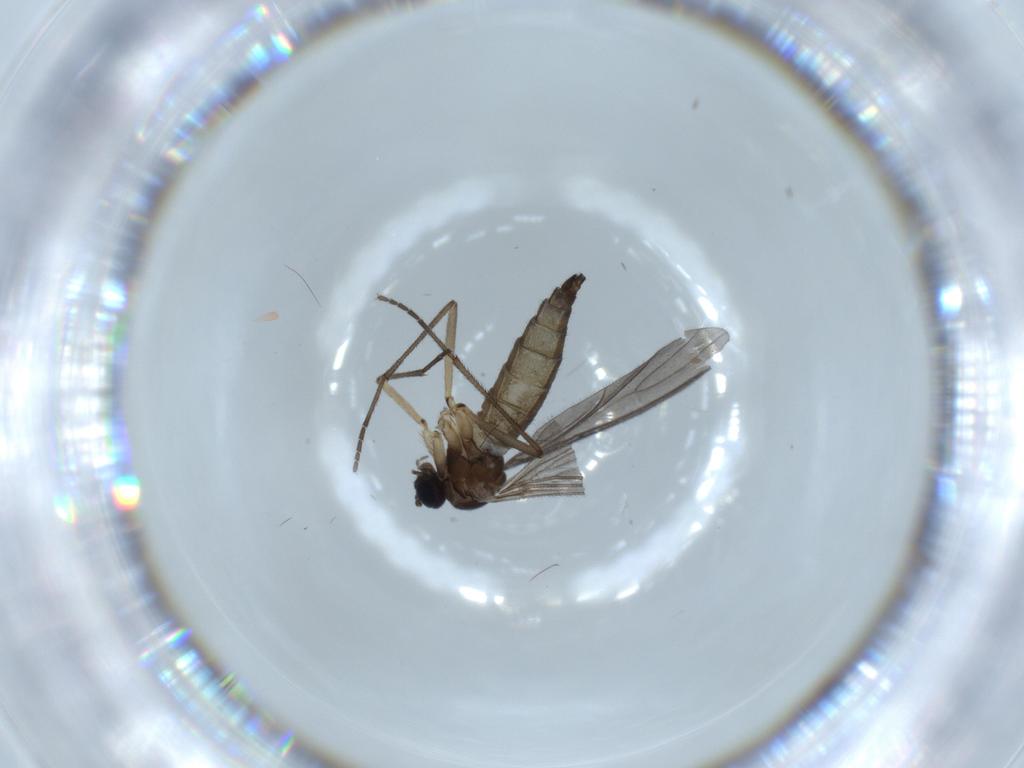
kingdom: Animalia
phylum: Arthropoda
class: Insecta
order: Diptera
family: Sciaridae
